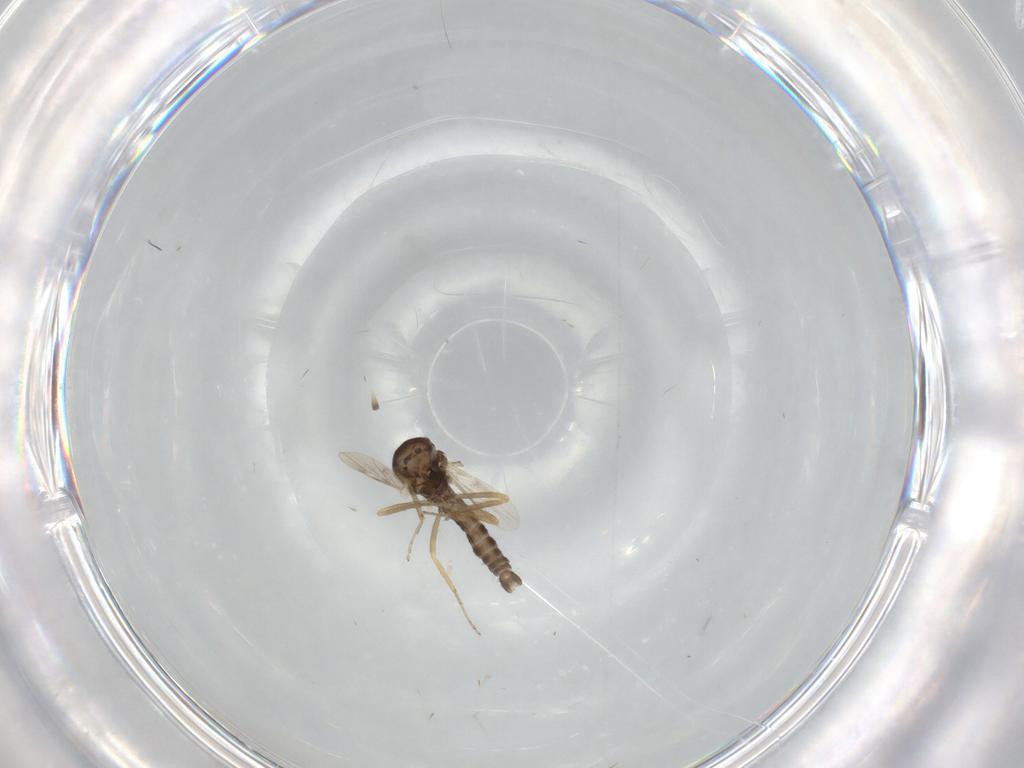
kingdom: Animalia
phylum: Arthropoda
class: Insecta
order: Diptera
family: Ceratopogonidae
